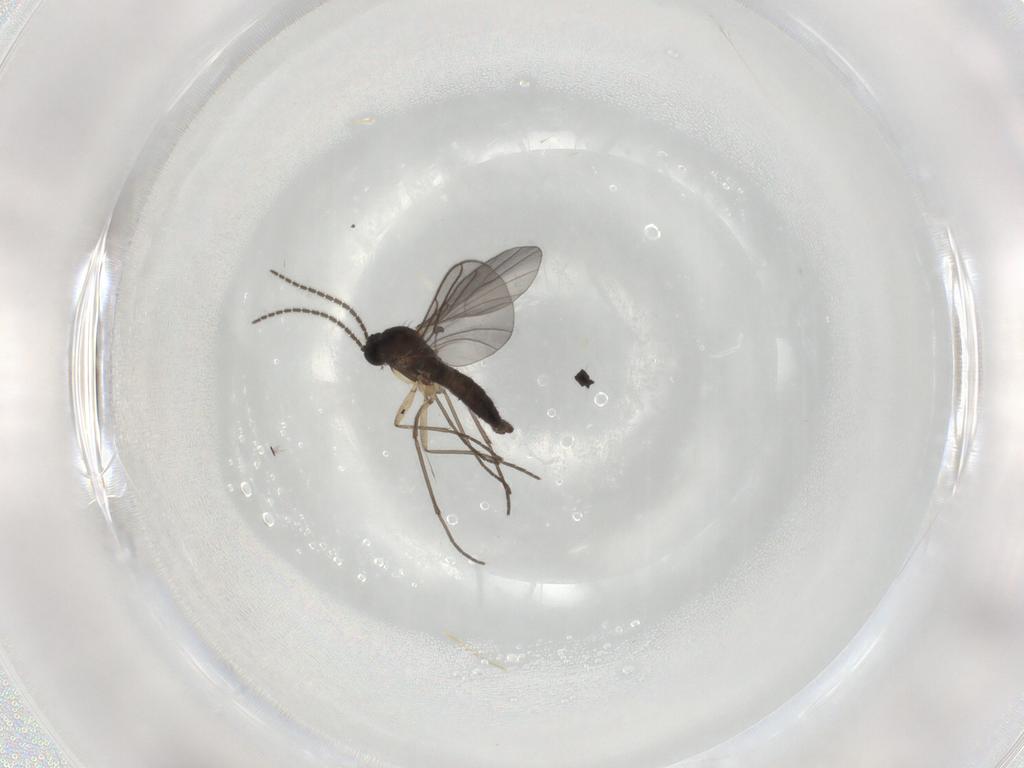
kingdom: Animalia
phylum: Arthropoda
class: Insecta
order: Diptera
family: Sciaridae
